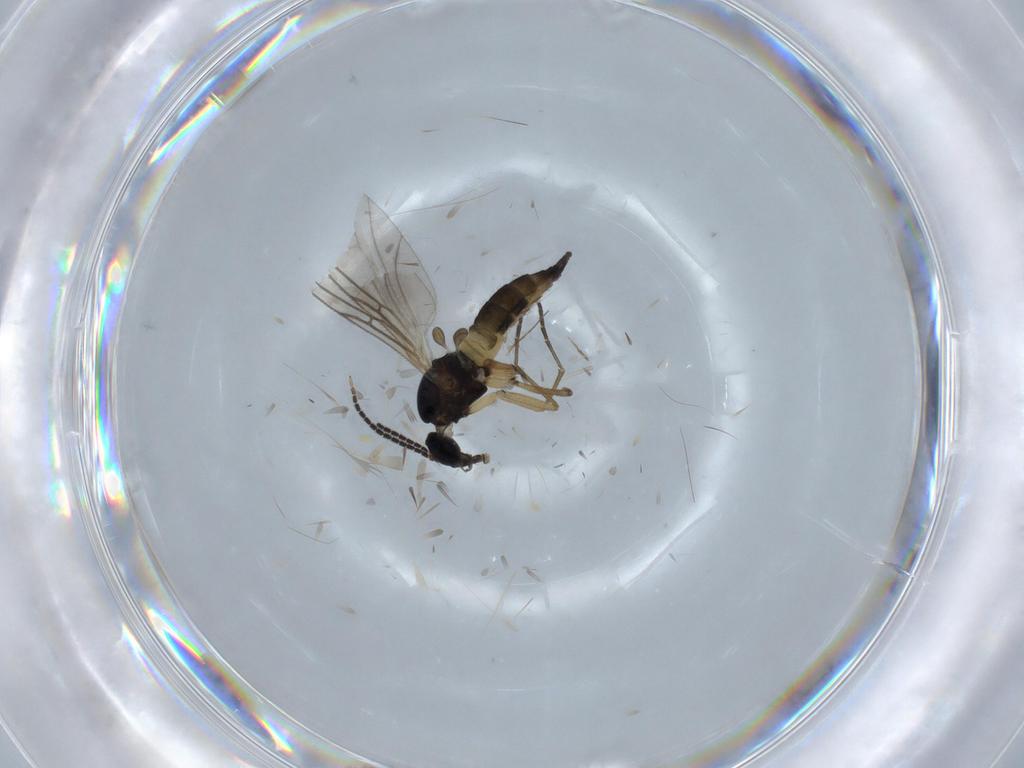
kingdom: Animalia
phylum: Arthropoda
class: Insecta
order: Diptera
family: Sciaridae
